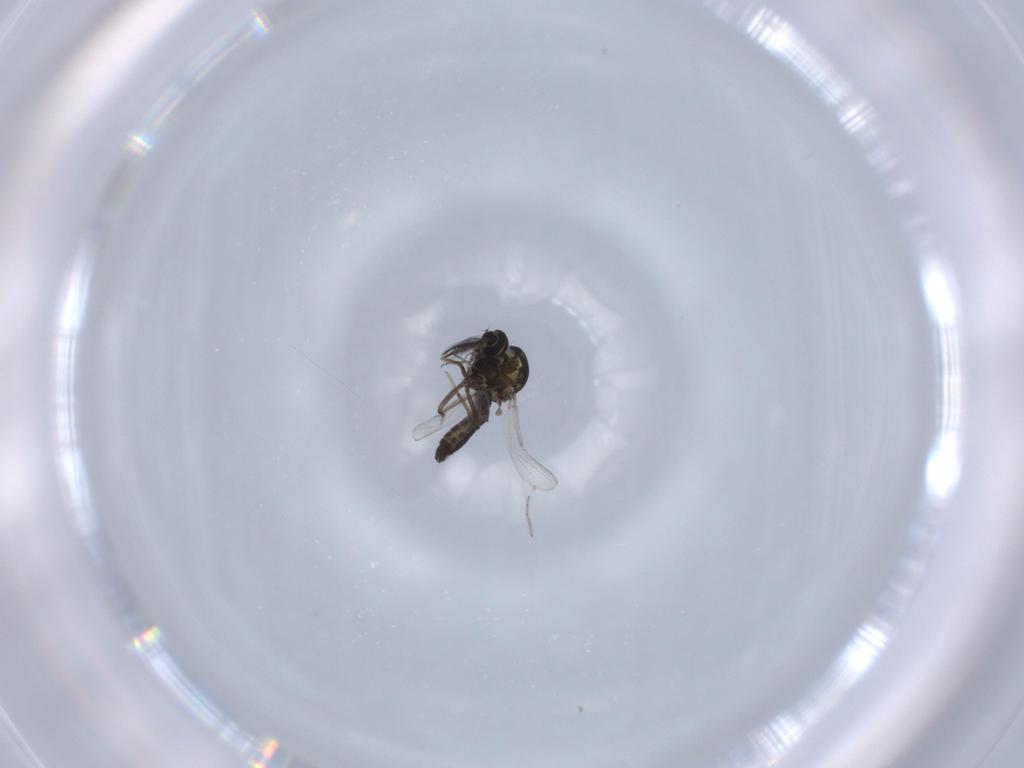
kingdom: Animalia
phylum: Arthropoda
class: Insecta
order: Diptera
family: Ceratopogonidae
